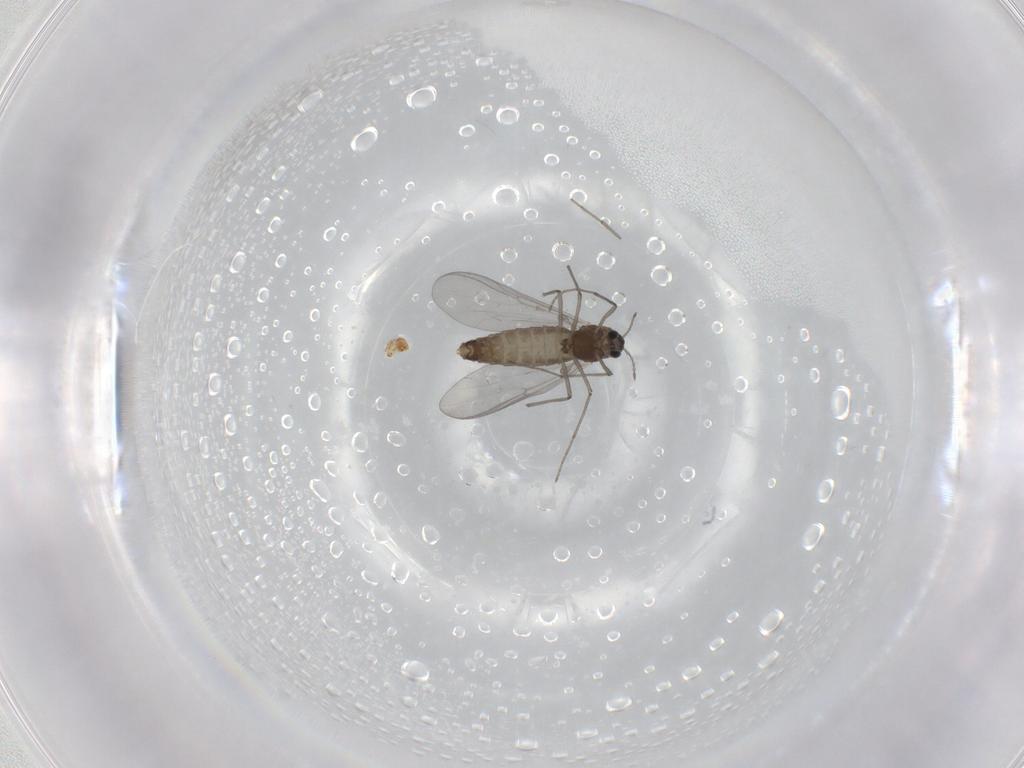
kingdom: Animalia
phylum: Arthropoda
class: Insecta
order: Diptera
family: Chironomidae
